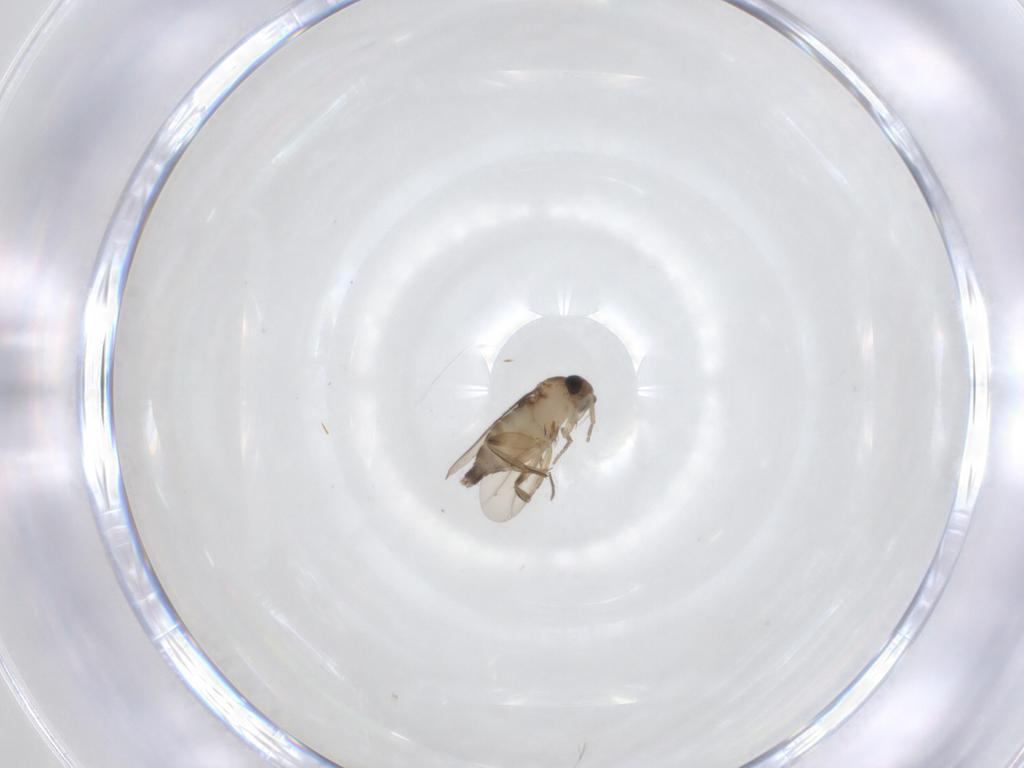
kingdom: Animalia
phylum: Arthropoda
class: Insecta
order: Diptera
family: Phoridae
